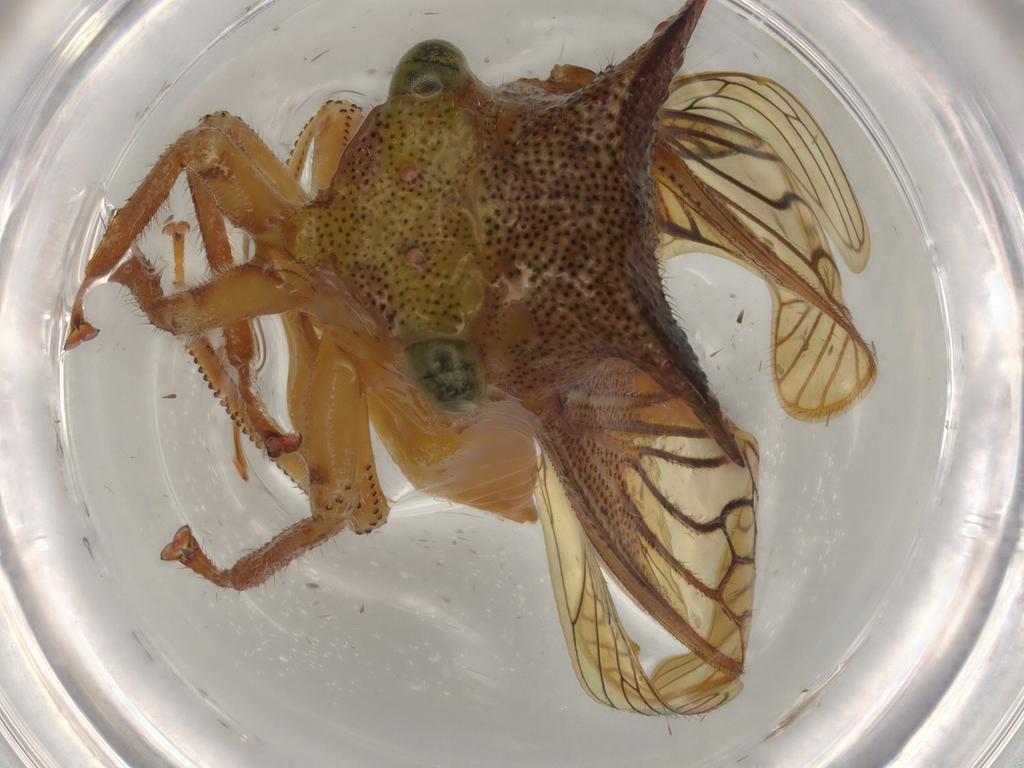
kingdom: Animalia
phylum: Arthropoda
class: Insecta
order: Hemiptera
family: Membracidae
